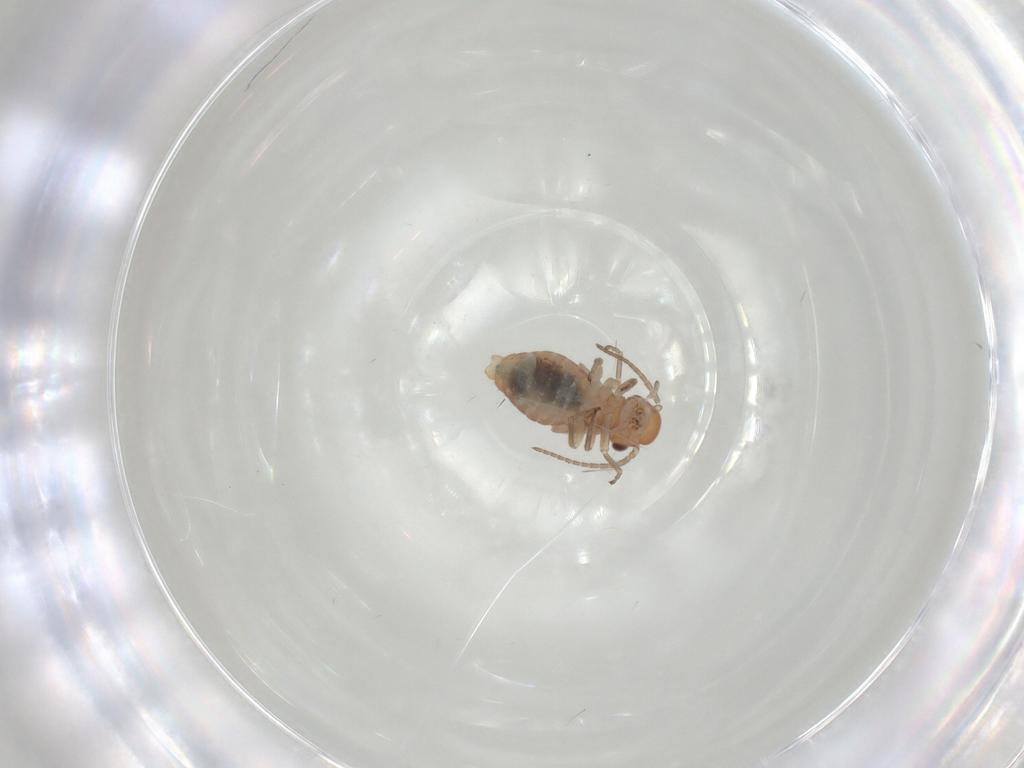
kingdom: Animalia
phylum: Arthropoda
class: Insecta
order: Psocodea
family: Caeciliusidae
